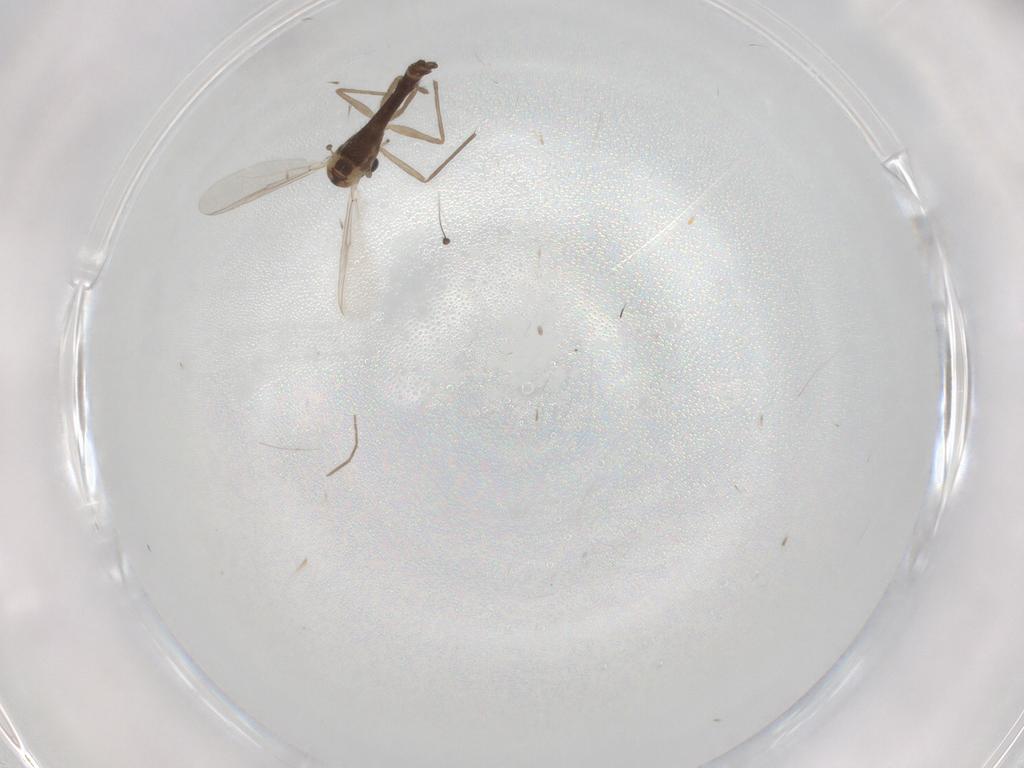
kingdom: Animalia
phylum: Arthropoda
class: Insecta
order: Diptera
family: Chironomidae
